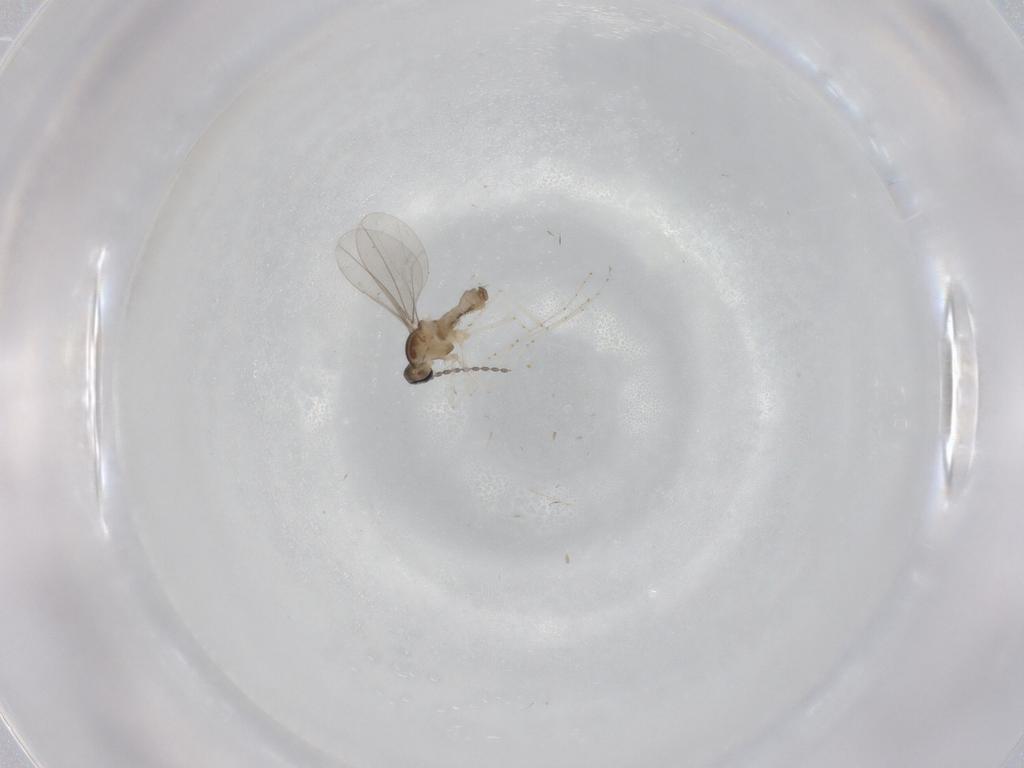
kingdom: Animalia
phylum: Arthropoda
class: Insecta
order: Diptera
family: Cecidomyiidae
